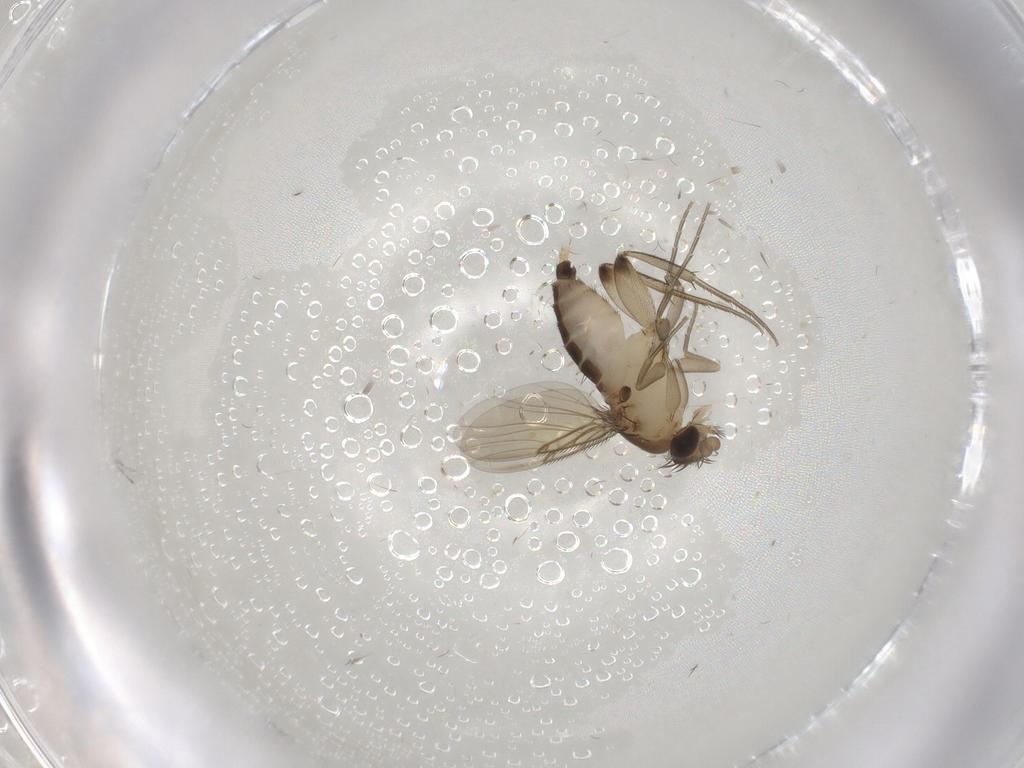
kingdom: Animalia
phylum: Arthropoda
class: Insecta
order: Diptera
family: Phoridae
